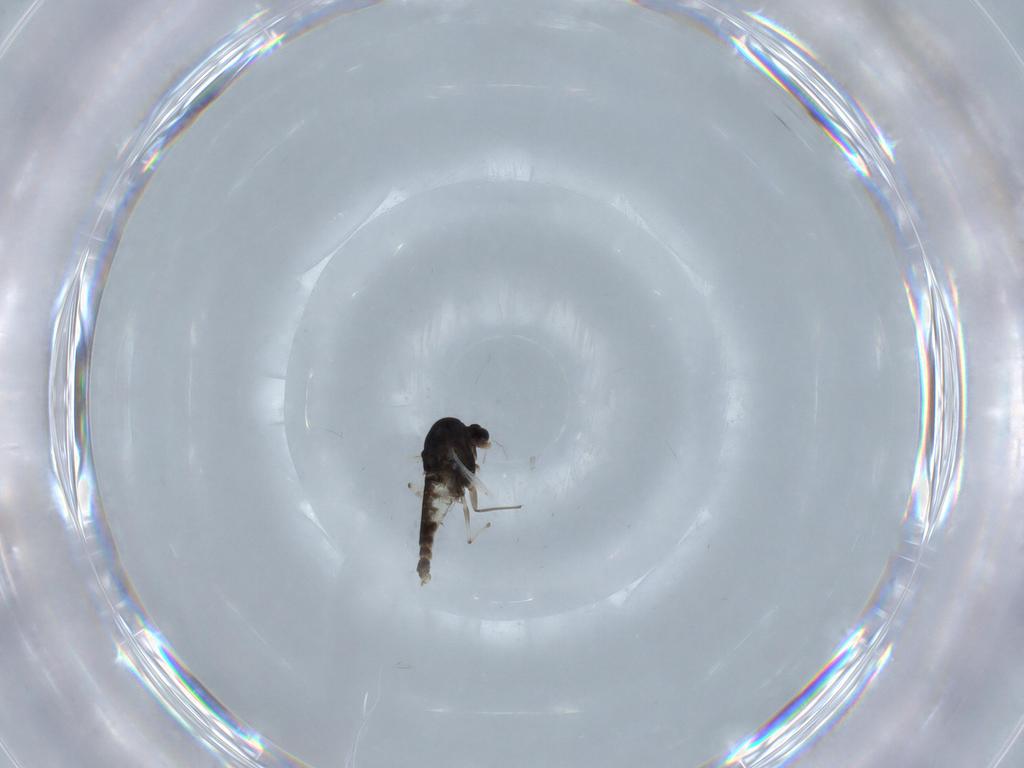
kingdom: Animalia
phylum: Arthropoda
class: Insecta
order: Diptera
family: Chironomidae
